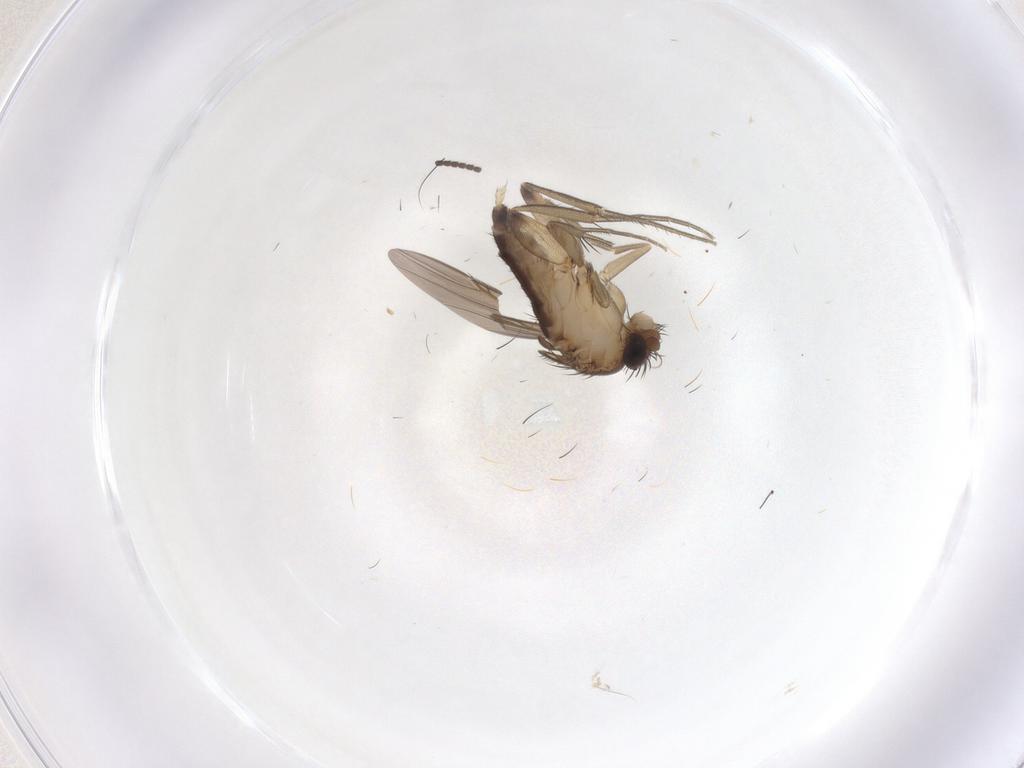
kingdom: Animalia
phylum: Arthropoda
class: Insecta
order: Diptera
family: Phoridae
